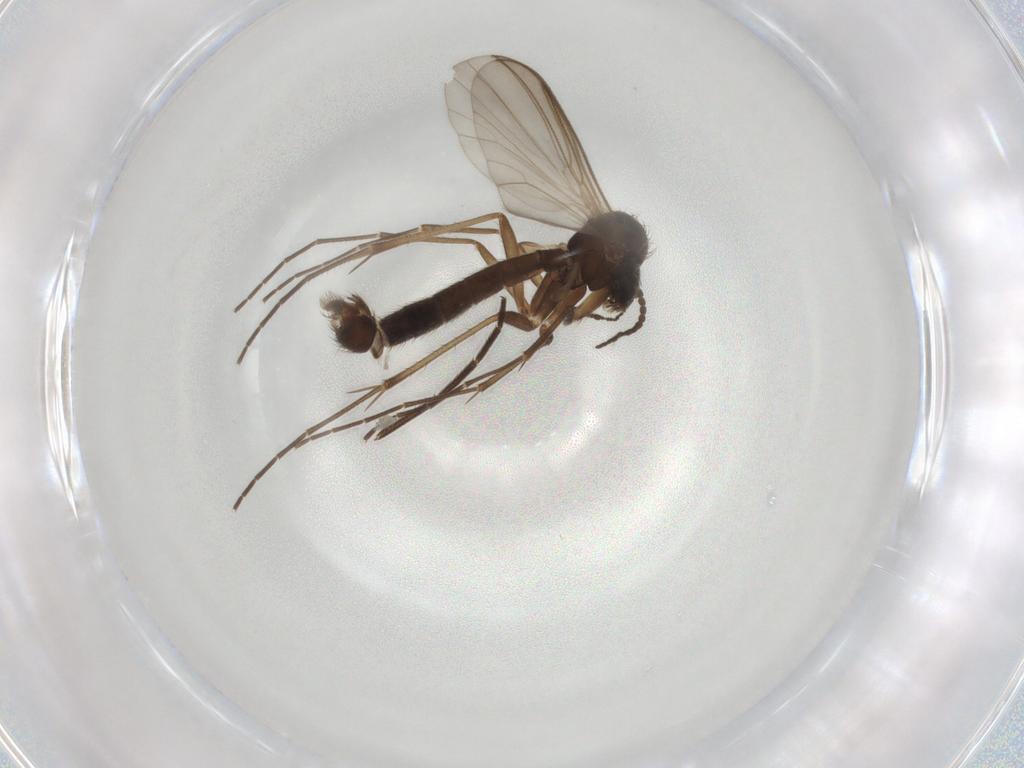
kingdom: Animalia
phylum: Arthropoda
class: Insecta
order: Diptera
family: Mycetophilidae
